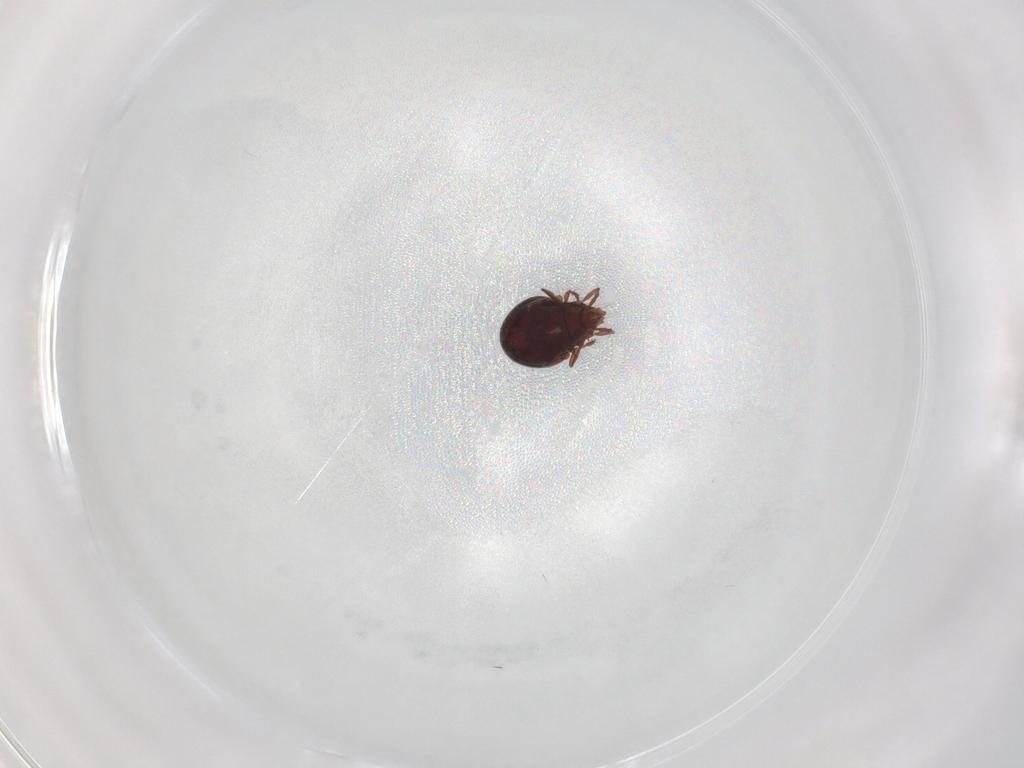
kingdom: Animalia
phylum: Arthropoda
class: Arachnida
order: Sarcoptiformes
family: Ceratoppiidae
